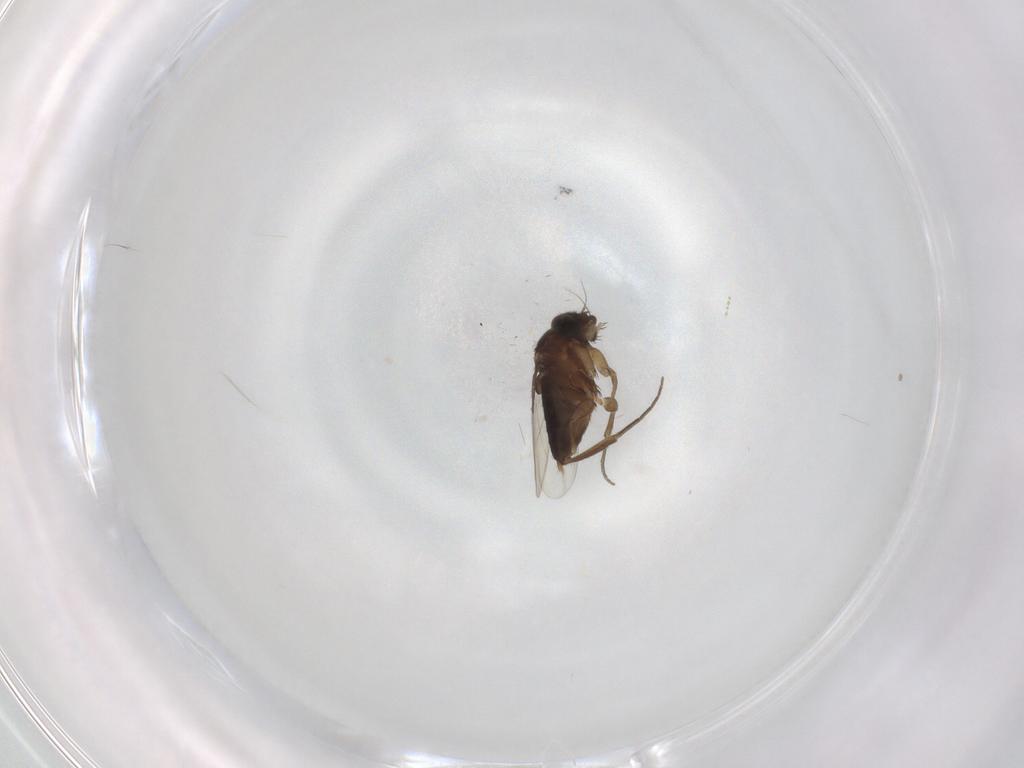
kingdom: Animalia
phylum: Arthropoda
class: Insecta
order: Diptera
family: Phoridae
